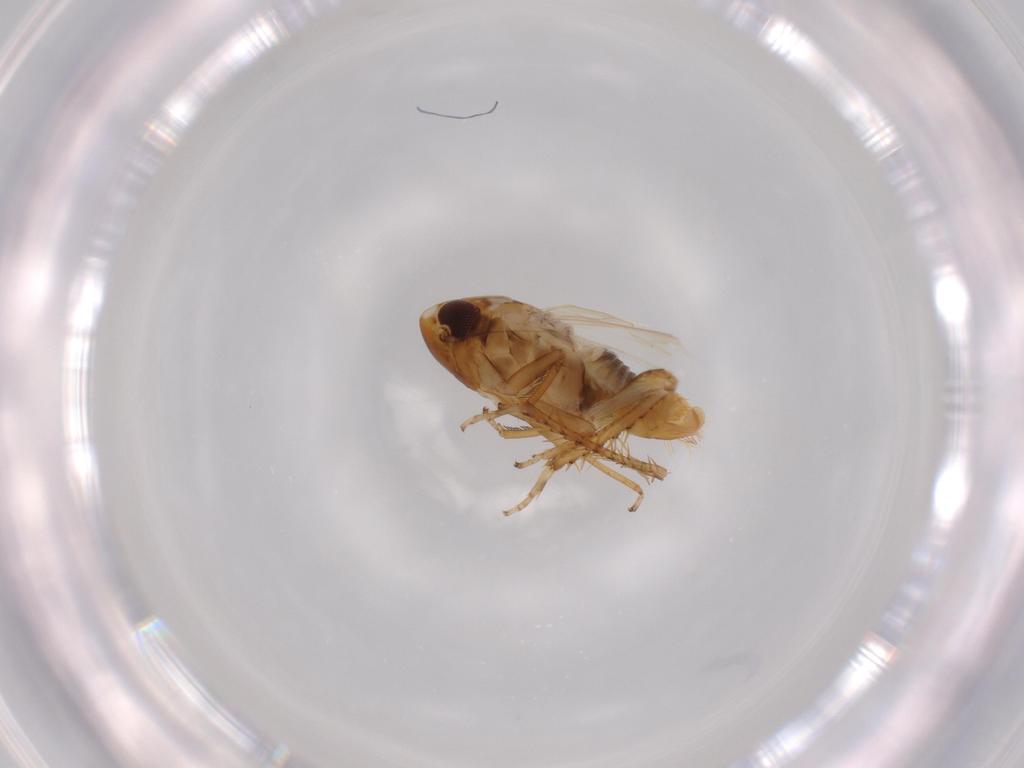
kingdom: Animalia
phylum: Arthropoda
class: Insecta
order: Hemiptera
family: Cicadellidae
